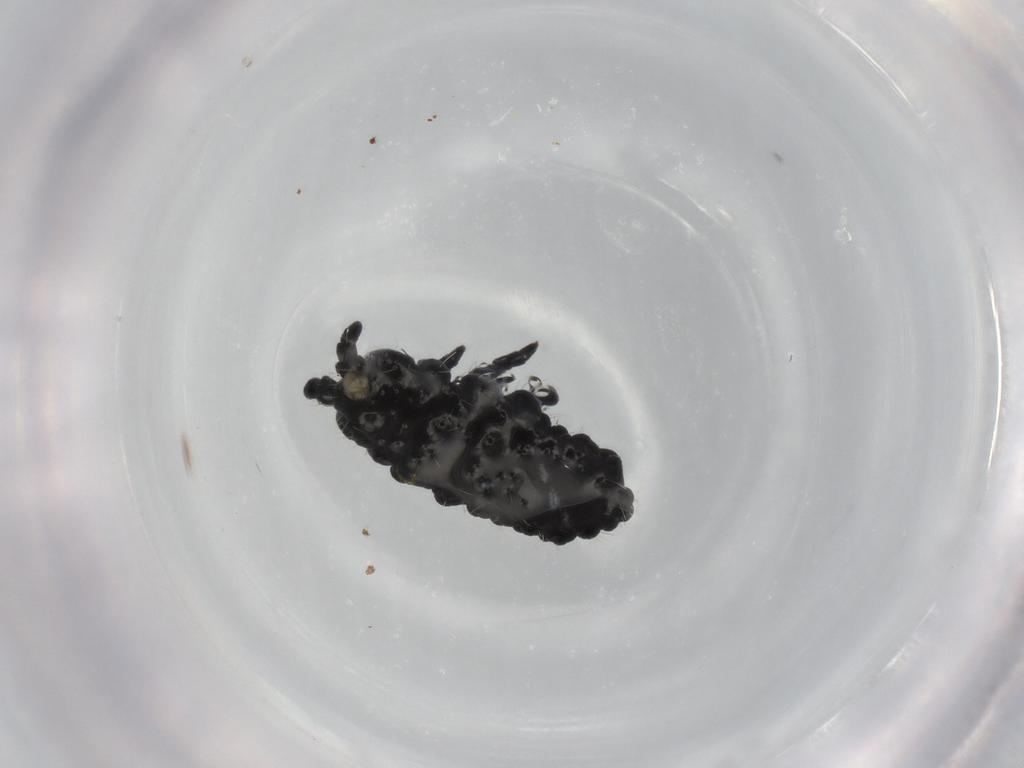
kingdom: Animalia
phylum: Arthropoda
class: Collembola
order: Poduromorpha
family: Neanuridae
